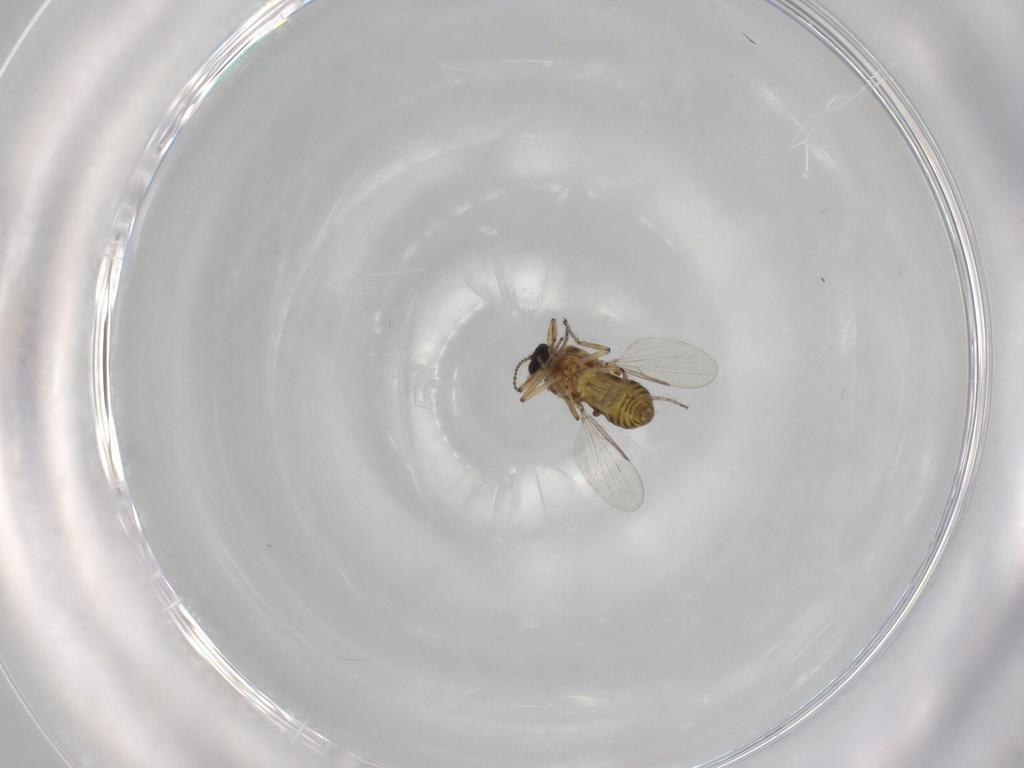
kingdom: Animalia
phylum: Arthropoda
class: Insecta
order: Diptera
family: Ceratopogonidae
